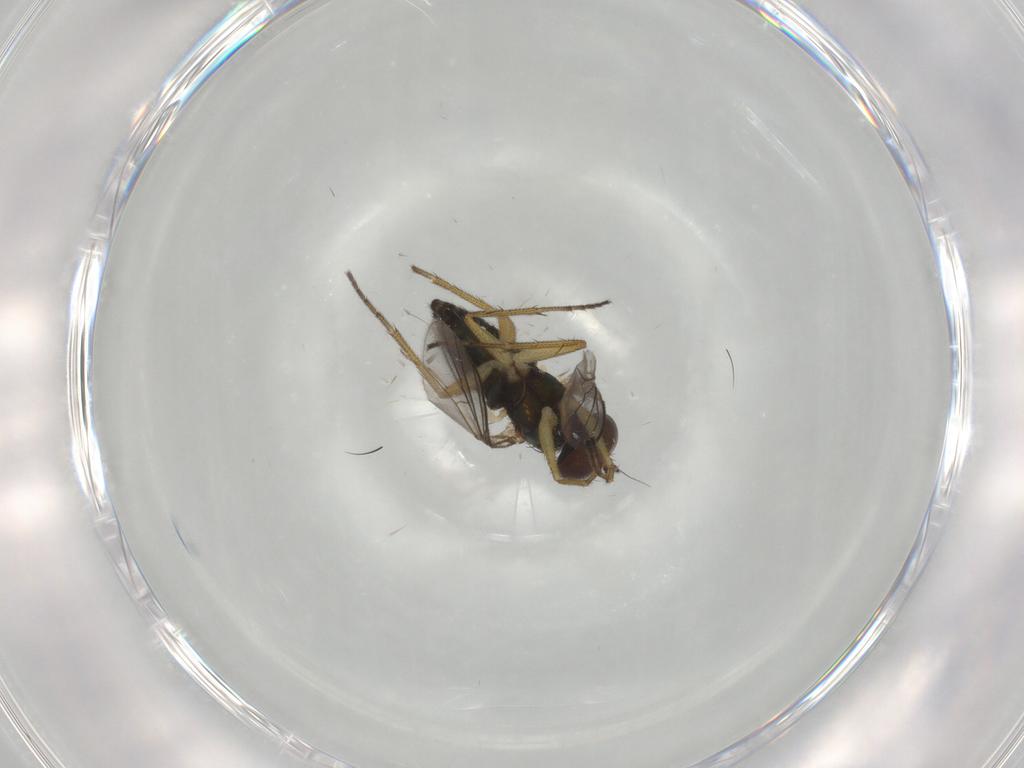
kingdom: Animalia
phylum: Arthropoda
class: Insecta
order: Diptera
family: Dolichopodidae
